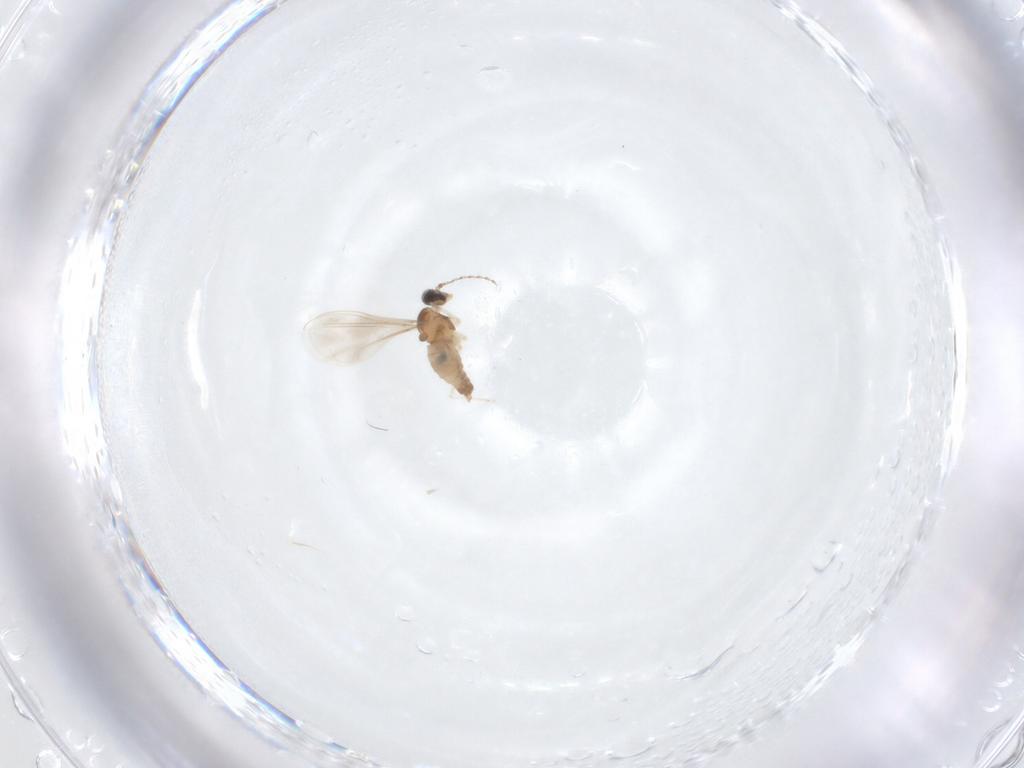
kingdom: Animalia
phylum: Arthropoda
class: Insecta
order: Diptera
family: Cecidomyiidae
